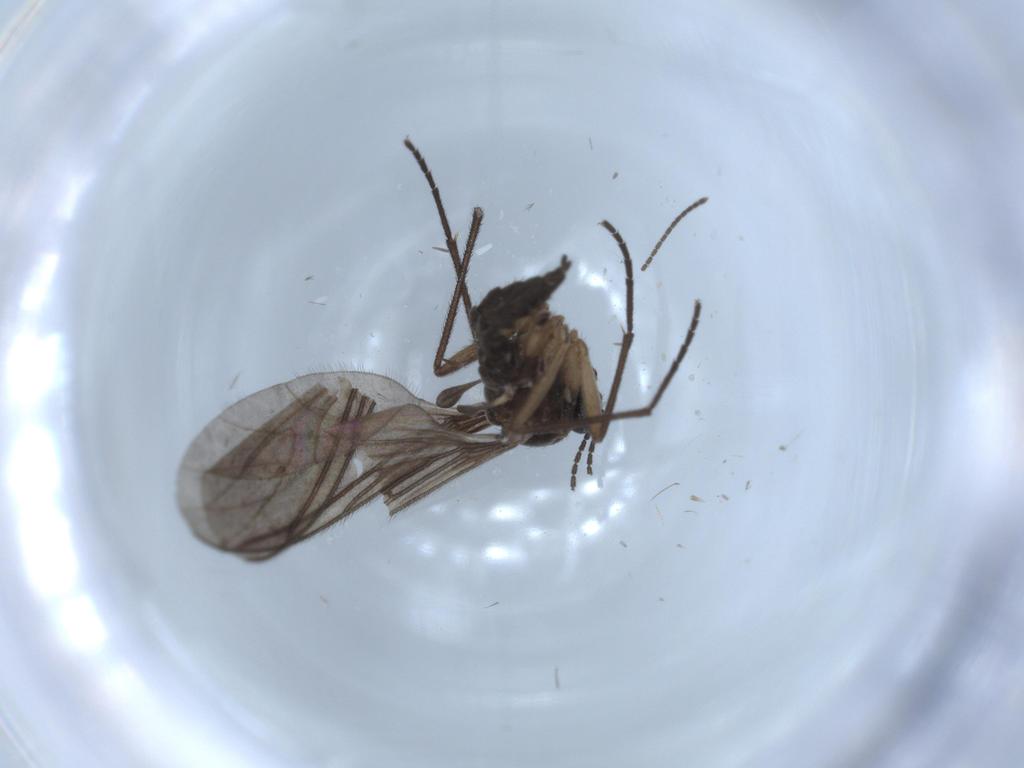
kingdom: Animalia
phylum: Arthropoda
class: Insecta
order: Diptera
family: Sciaridae
